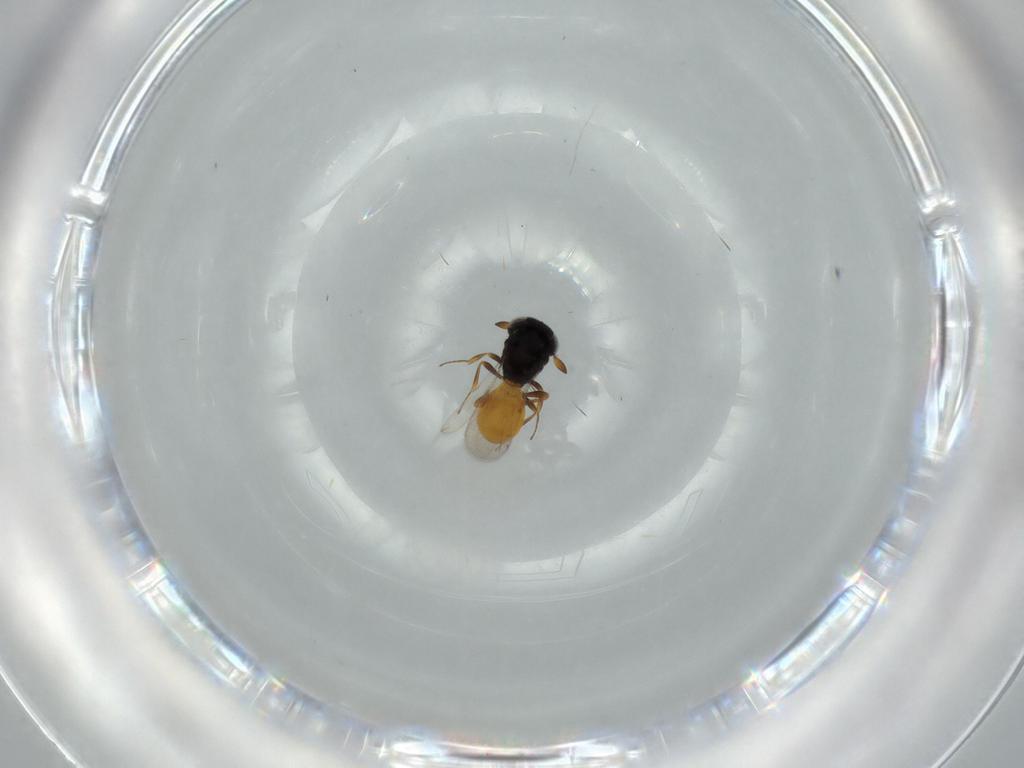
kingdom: Animalia
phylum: Arthropoda
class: Insecta
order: Hymenoptera
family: Scelionidae
